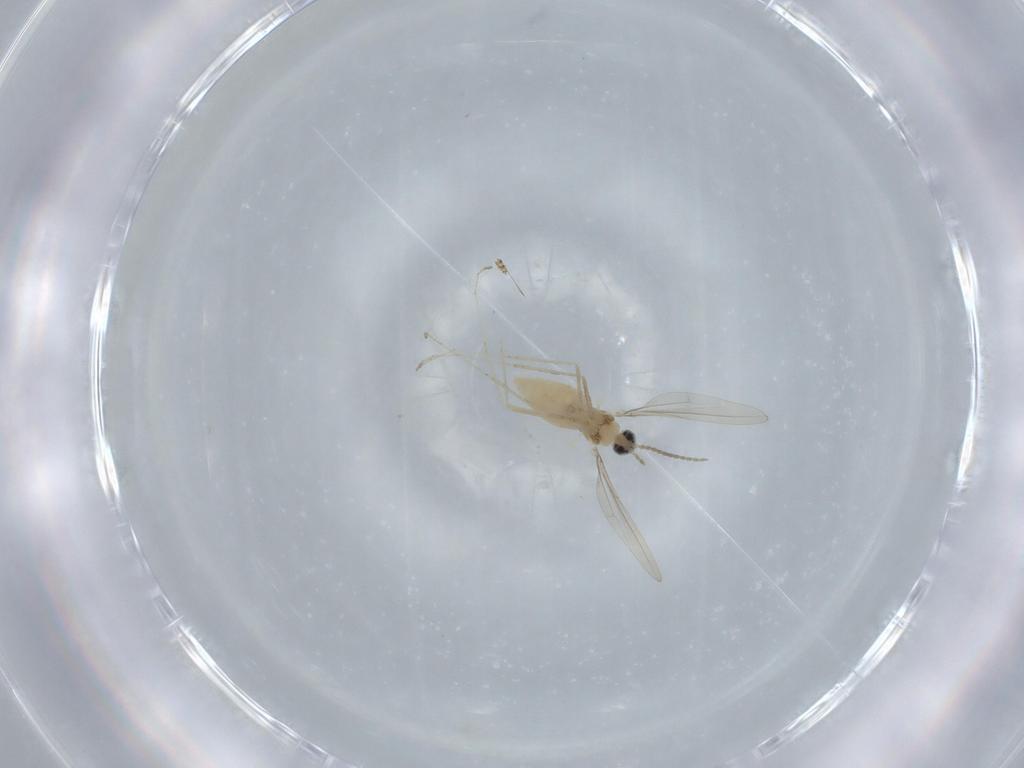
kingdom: Animalia
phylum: Arthropoda
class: Insecta
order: Diptera
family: Cecidomyiidae
